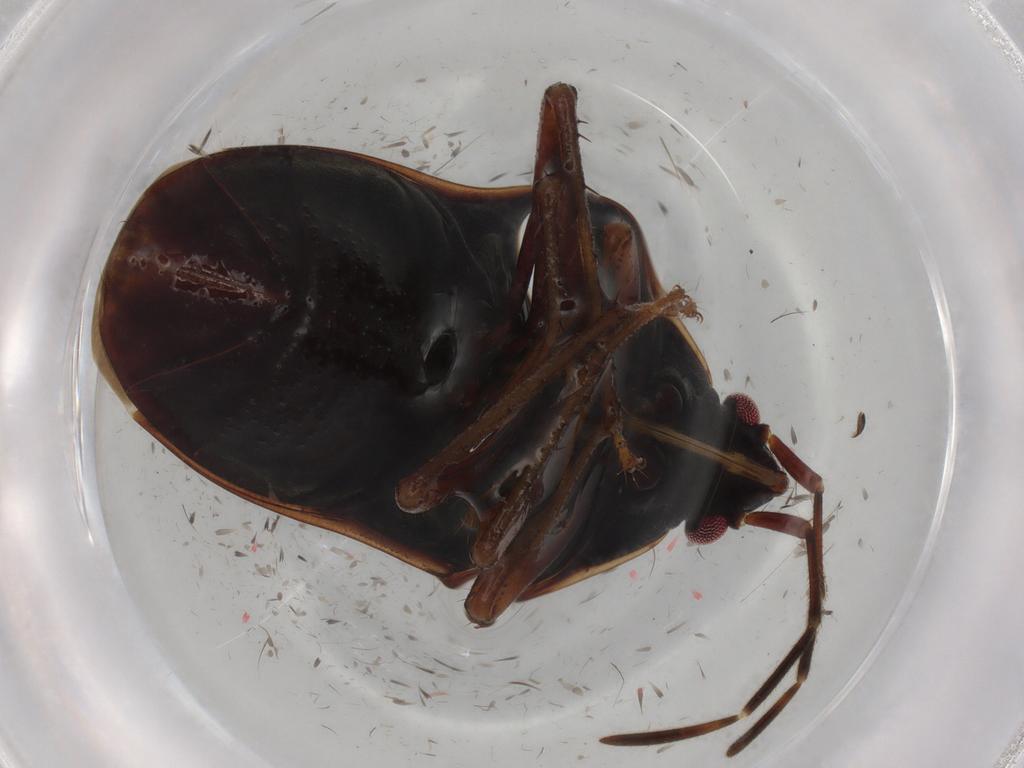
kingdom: Animalia
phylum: Arthropoda
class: Insecta
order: Hemiptera
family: Rhyparochromidae
